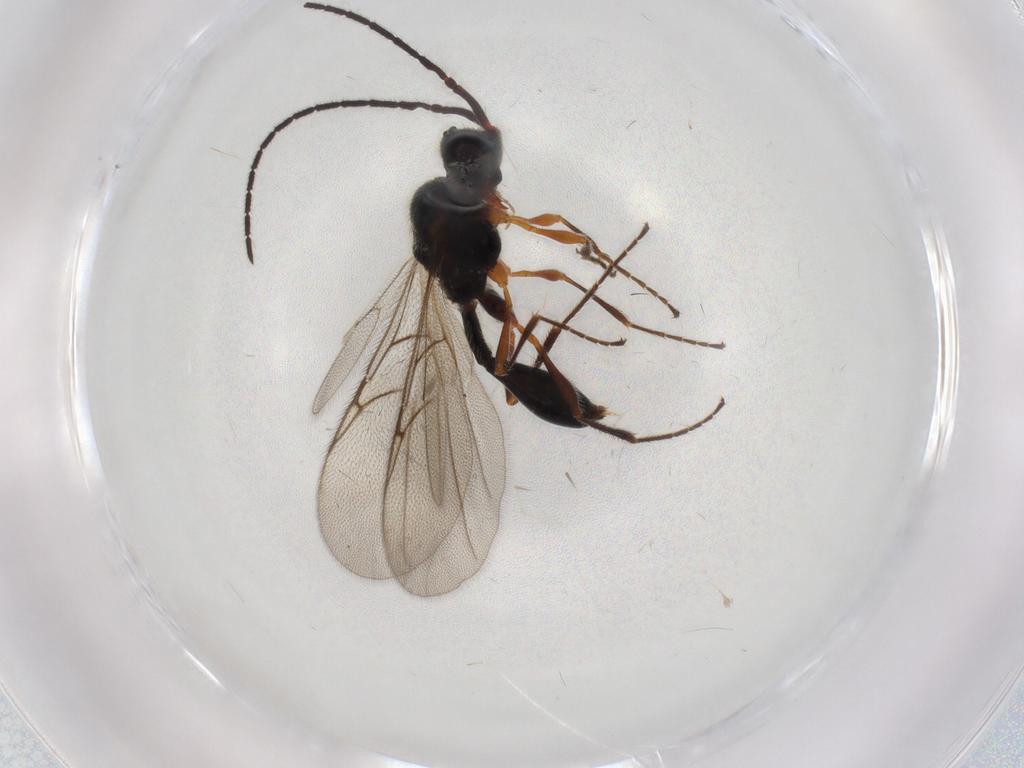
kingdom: Animalia
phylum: Arthropoda
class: Insecta
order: Hymenoptera
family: Diapriidae
